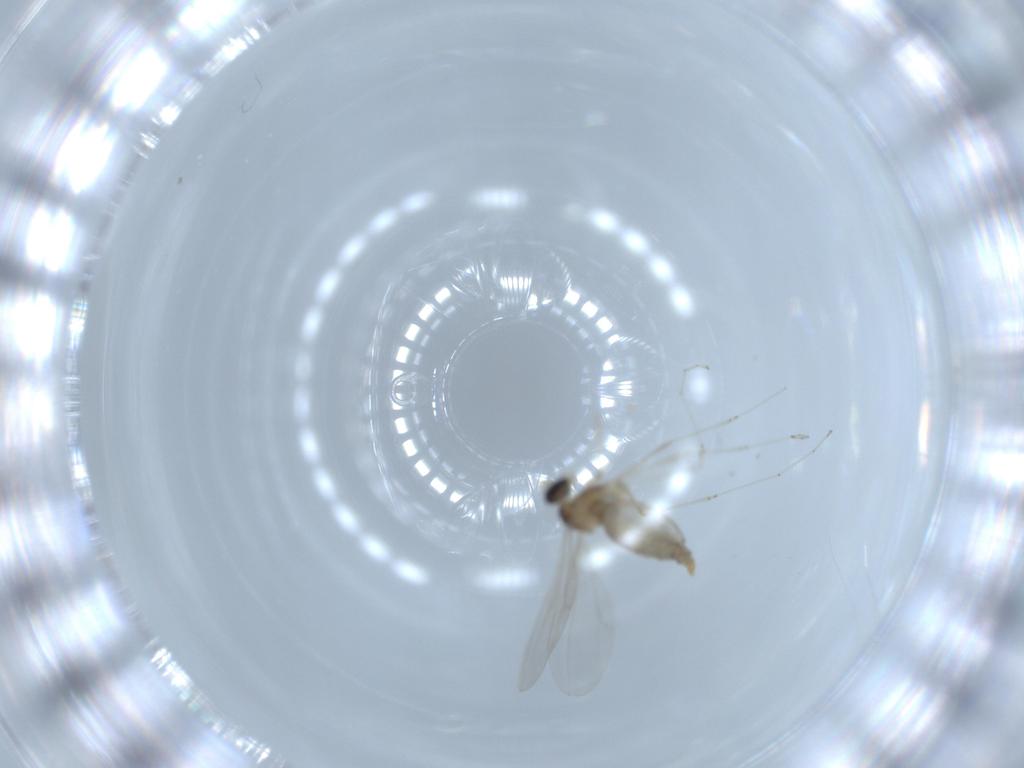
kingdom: Animalia
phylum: Arthropoda
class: Insecta
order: Diptera
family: Cecidomyiidae
